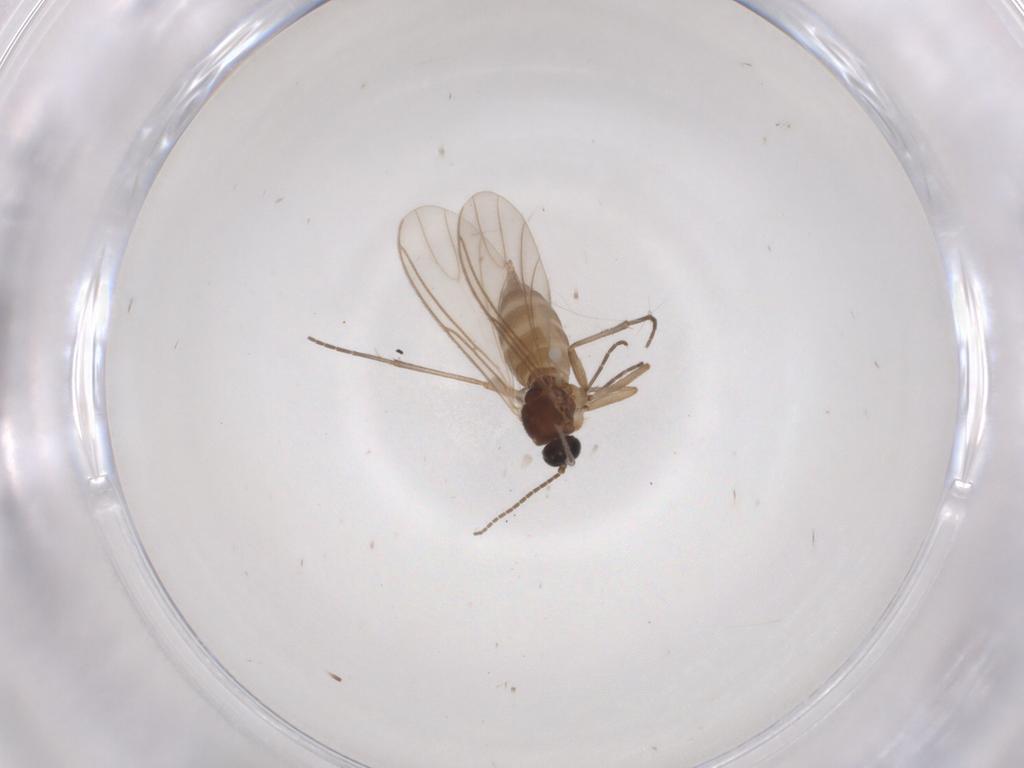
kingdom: Animalia
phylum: Arthropoda
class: Insecta
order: Diptera
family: Sciaridae
